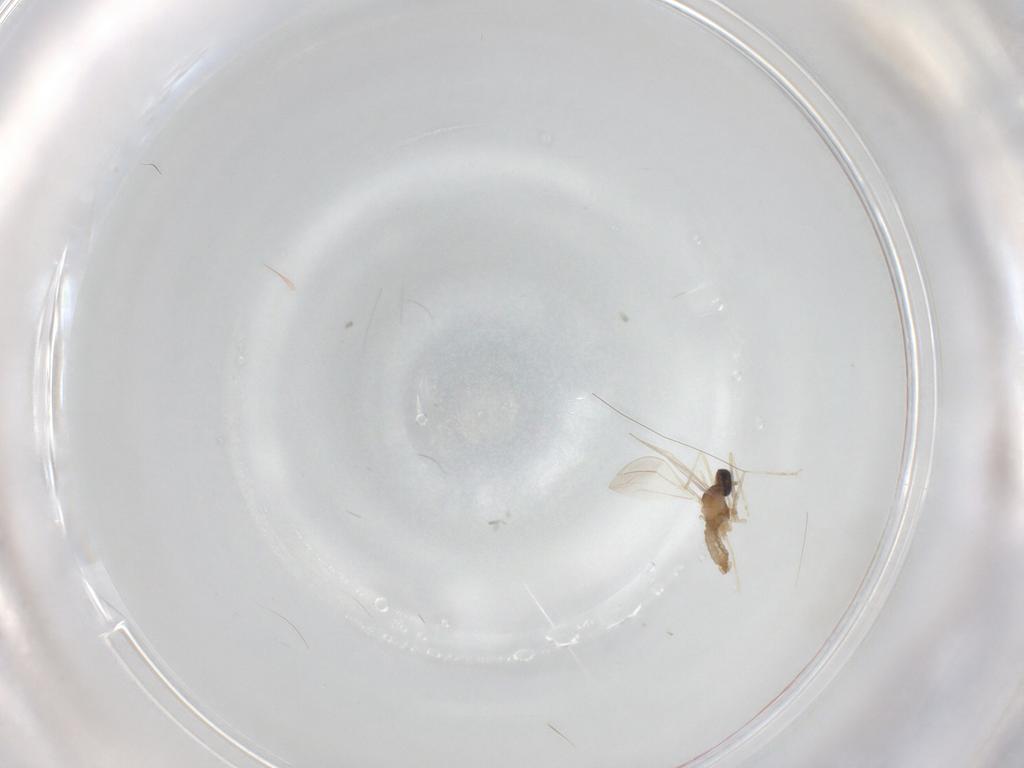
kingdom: Animalia
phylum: Arthropoda
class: Insecta
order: Diptera
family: Cecidomyiidae
